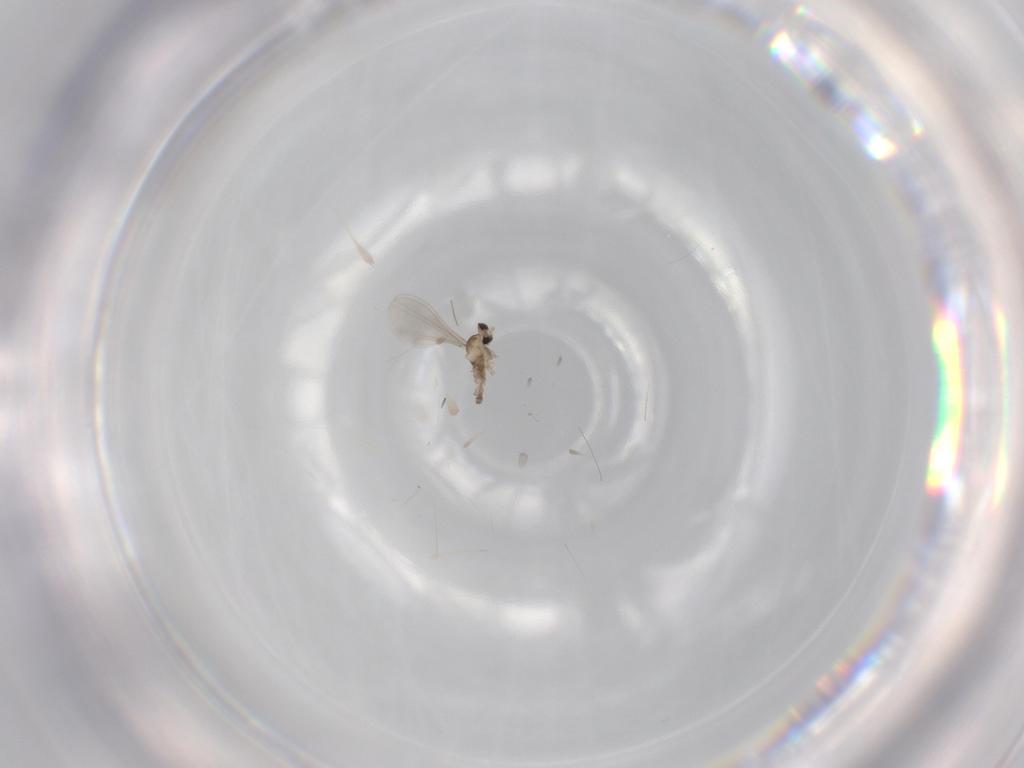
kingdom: Animalia
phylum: Arthropoda
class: Insecta
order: Diptera
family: Cecidomyiidae
